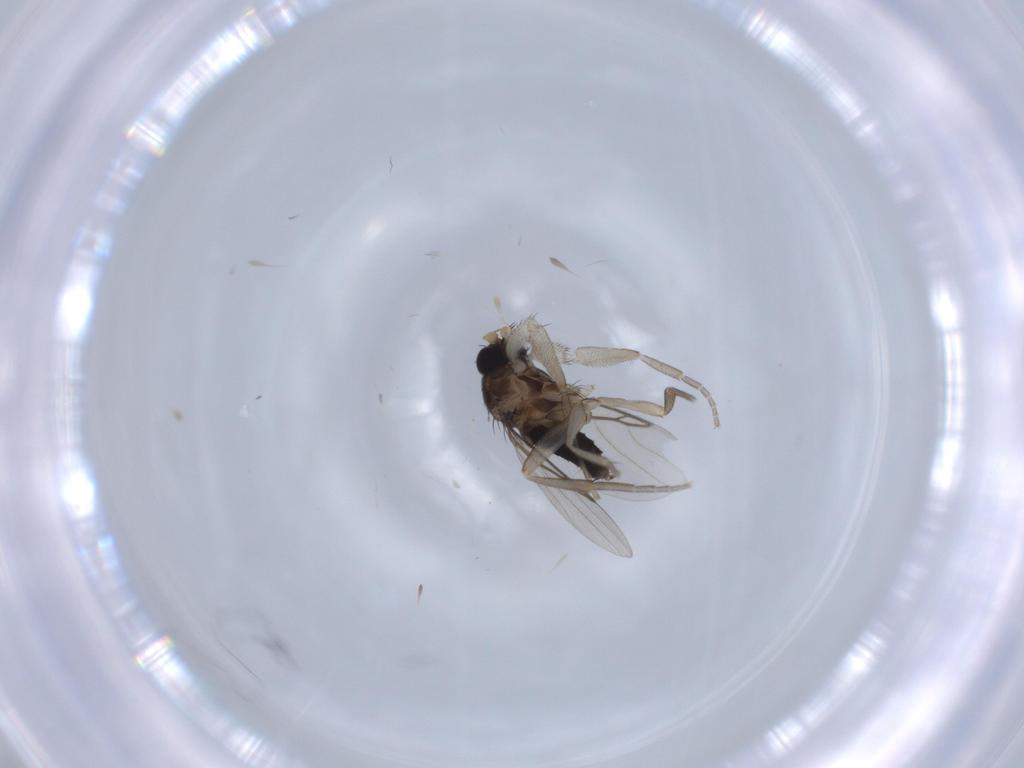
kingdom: Animalia
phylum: Arthropoda
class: Insecta
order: Diptera
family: Phoridae
